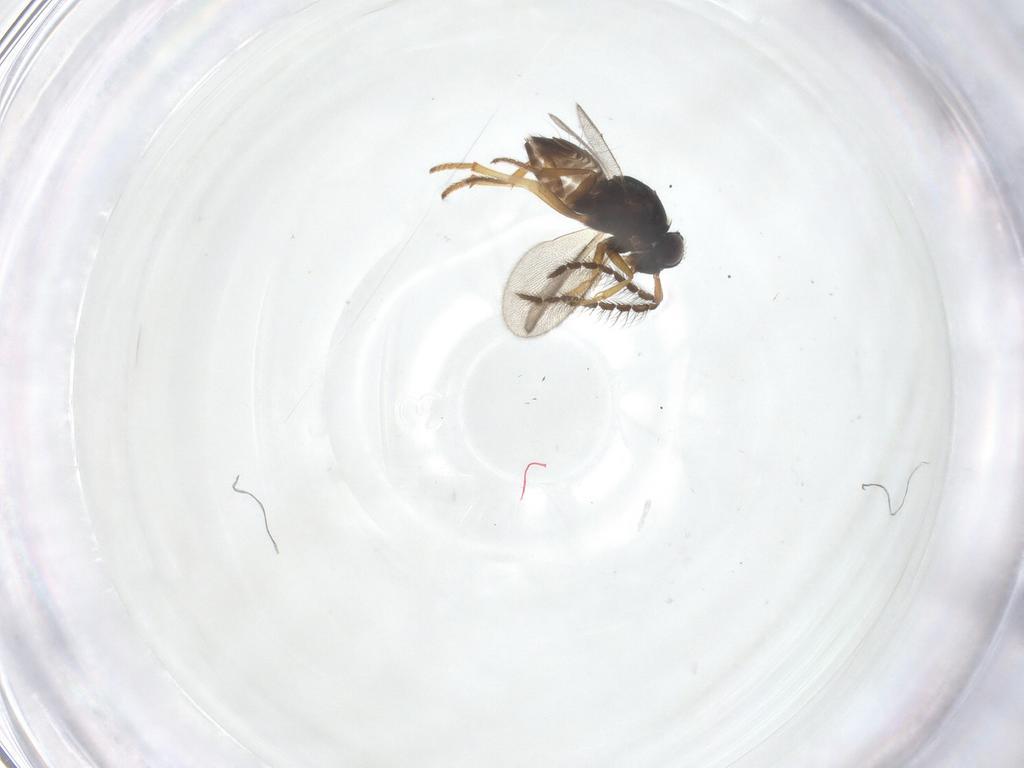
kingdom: Animalia
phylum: Arthropoda
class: Insecta
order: Hymenoptera
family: Encyrtidae
